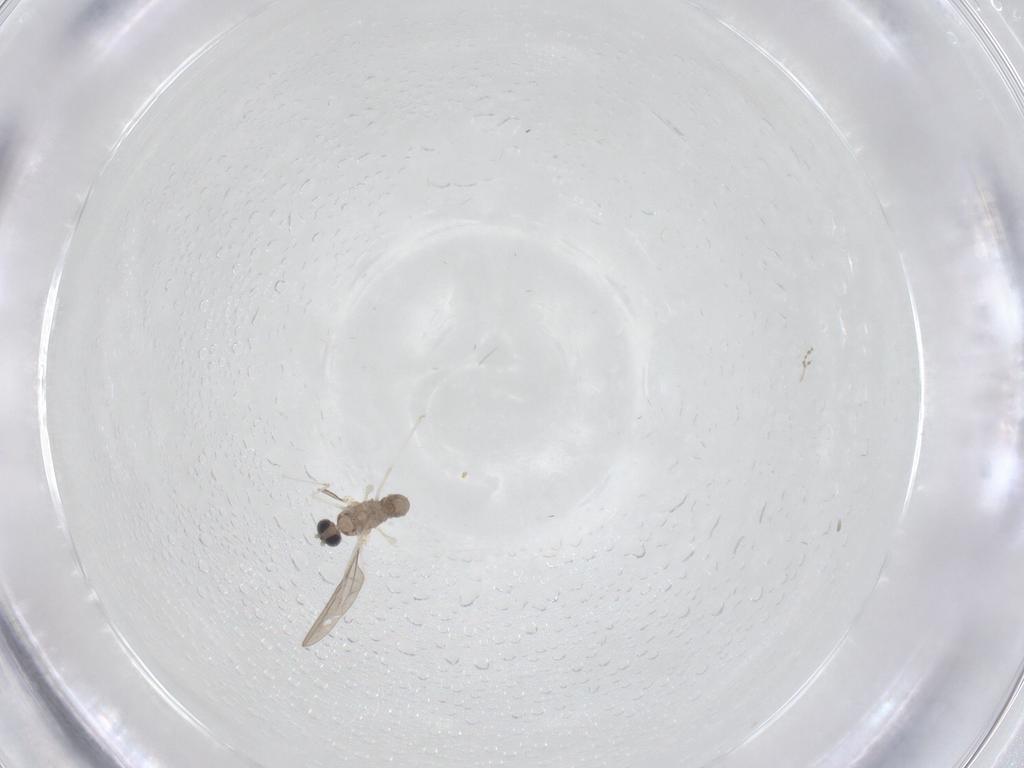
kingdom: Animalia
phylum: Arthropoda
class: Insecta
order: Diptera
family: Cecidomyiidae
